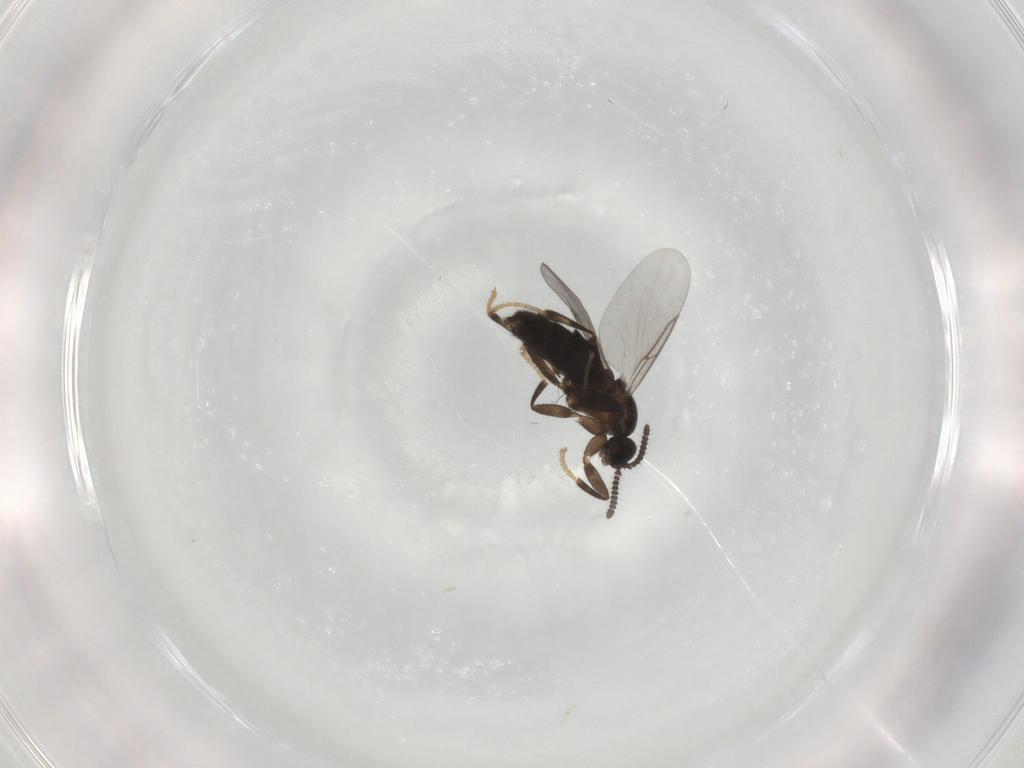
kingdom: Animalia
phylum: Arthropoda
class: Insecta
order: Diptera
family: Scatopsidae
